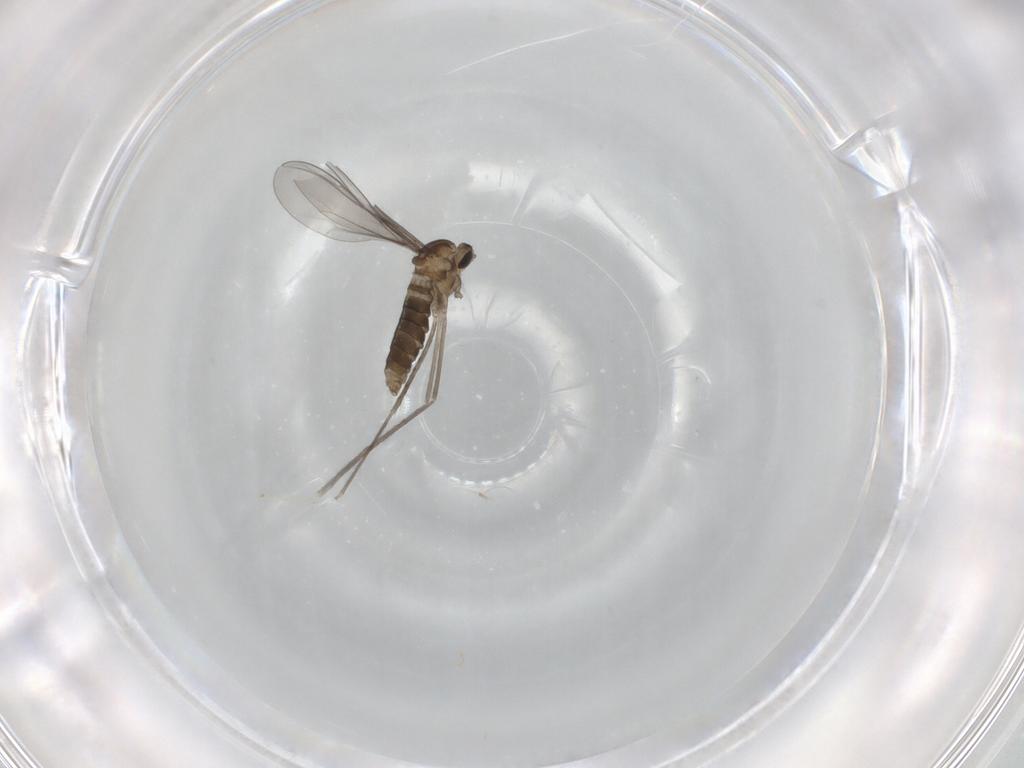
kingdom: Animalia
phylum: Arthropoda
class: Insecta
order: Diptera
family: Cecidomyiidae
